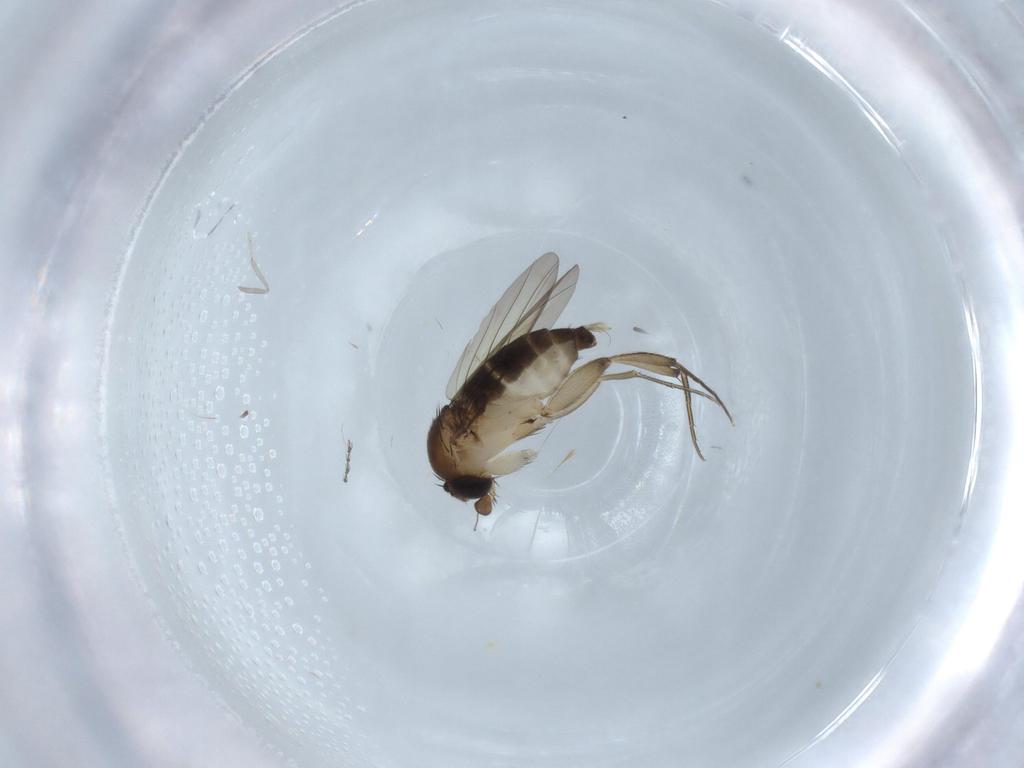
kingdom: Animalia
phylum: Arthropoda
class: Insecta
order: Diptera
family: Phoridae
